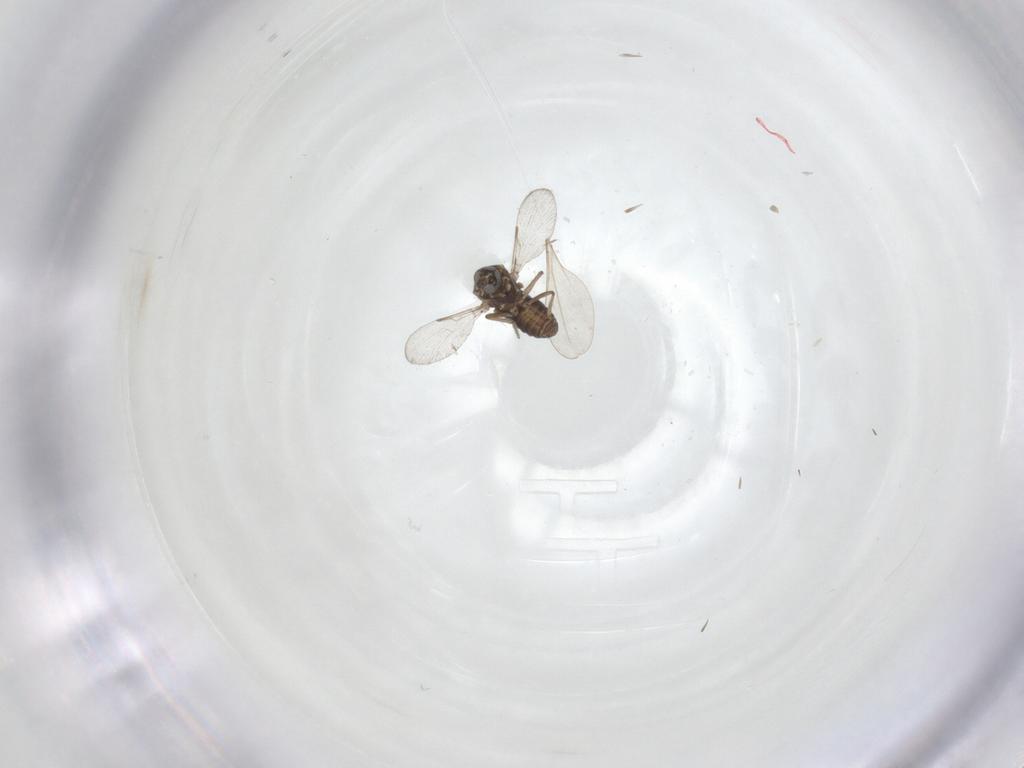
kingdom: Animalia
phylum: Arthropoda
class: Insecta
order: Diptera
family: Ceratopogonidae
